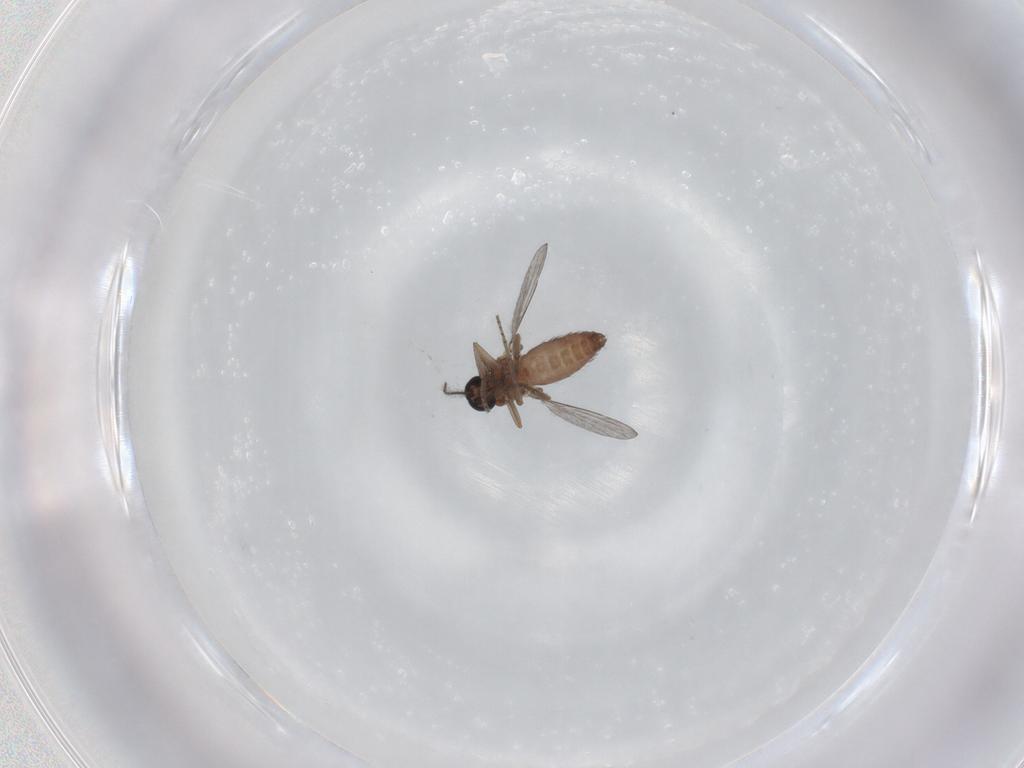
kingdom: Animalia
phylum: Arthropoda
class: Insecta
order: Diptera
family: Ceratopogonidae
